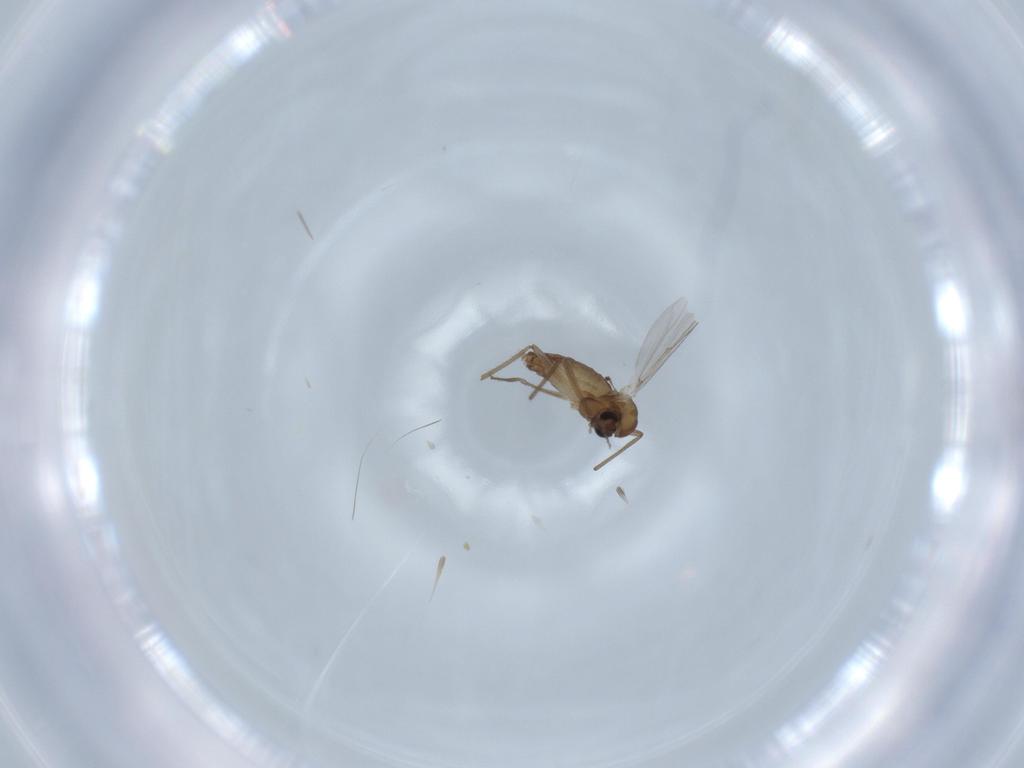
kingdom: Animalia
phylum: Arthropoda
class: Insecta
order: Diptera
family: Chironomidae
